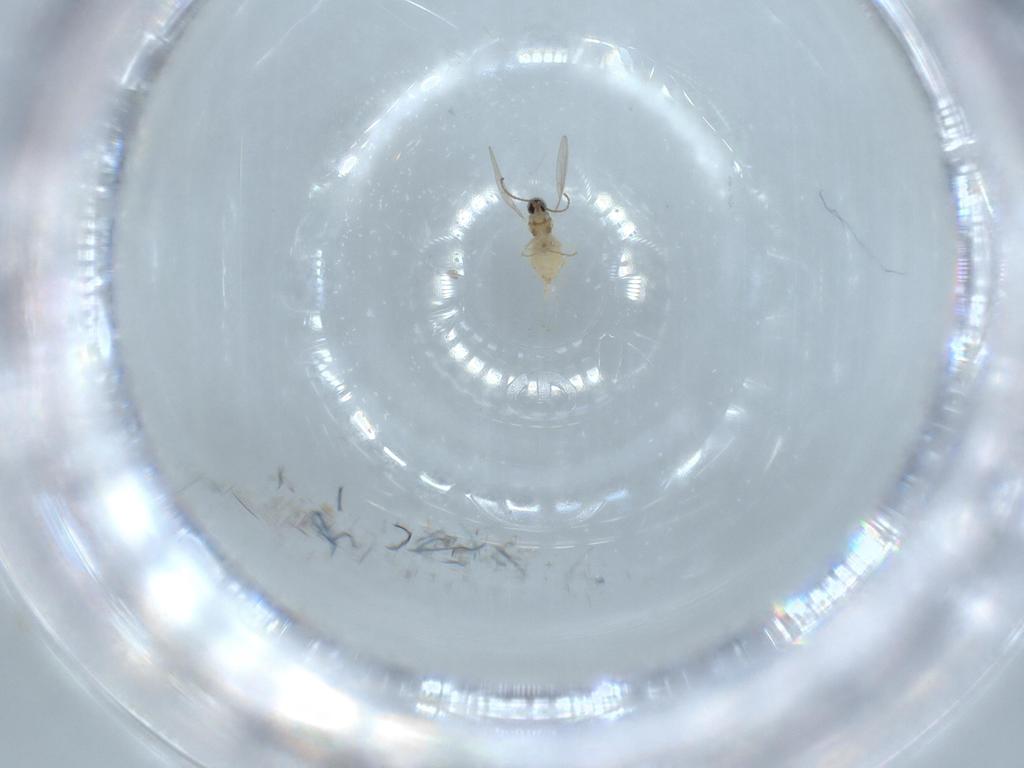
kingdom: Animalia
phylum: Arthropoda
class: Insecta
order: Diptera
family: Cecidomyiidae
